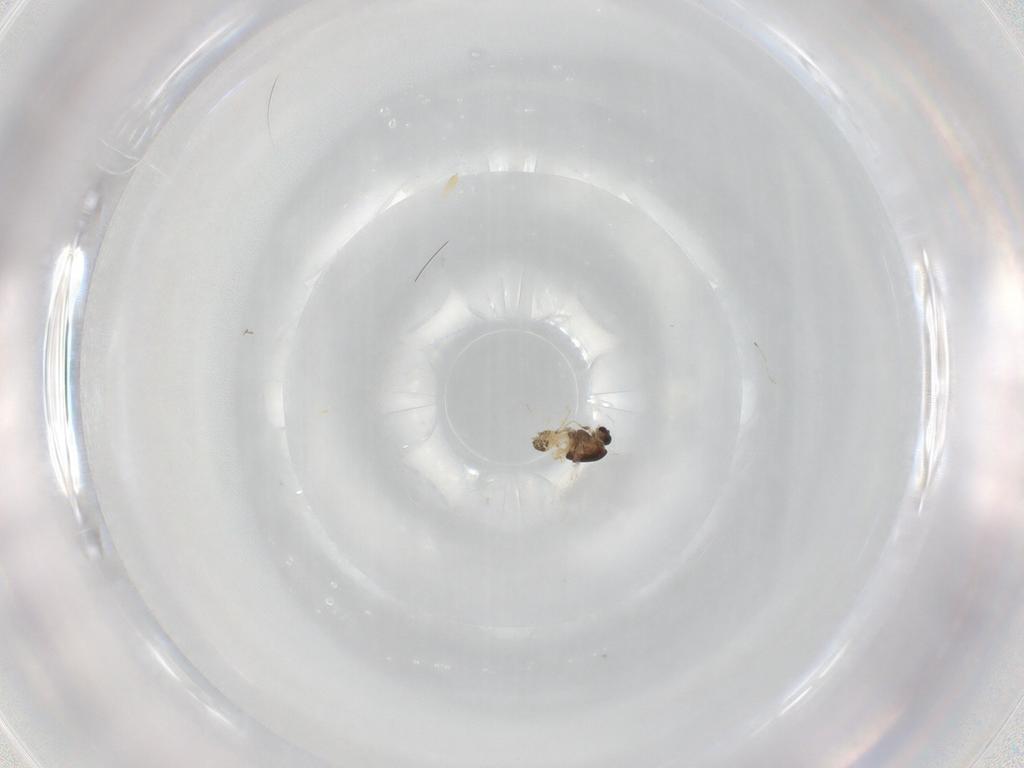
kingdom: Animalia
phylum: Arthropoda
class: Insecta
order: Diptera
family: Chironomidae
